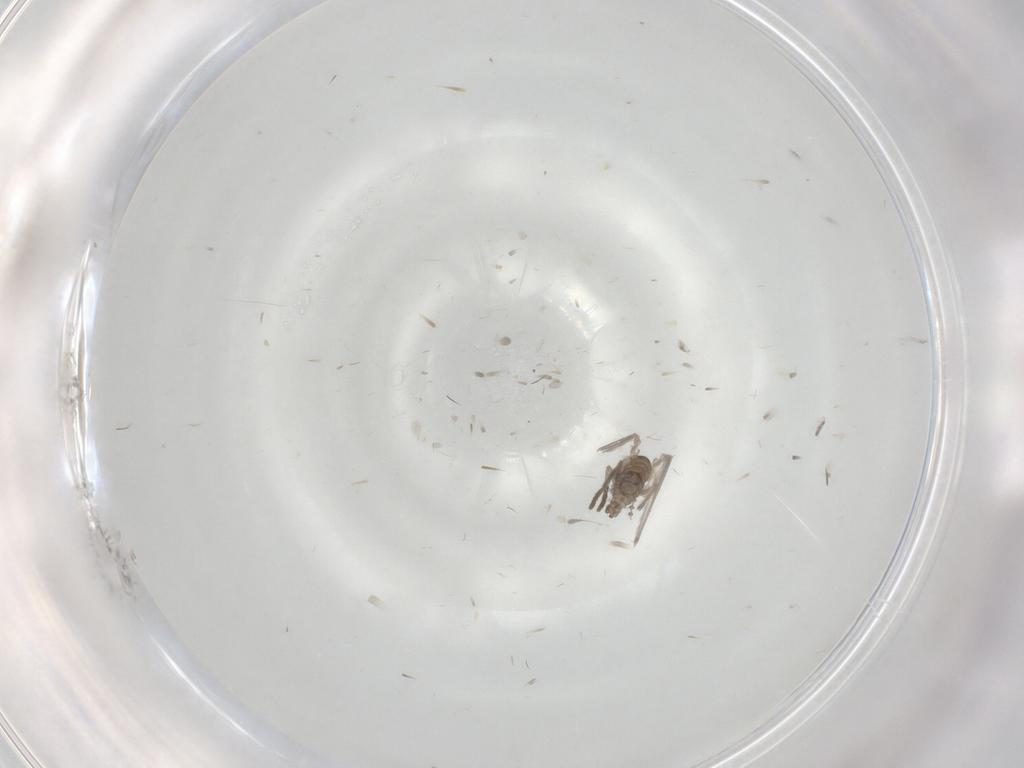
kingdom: Animalia
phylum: Arthropoda
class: Insecta
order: Diptera
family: Psychodidae
